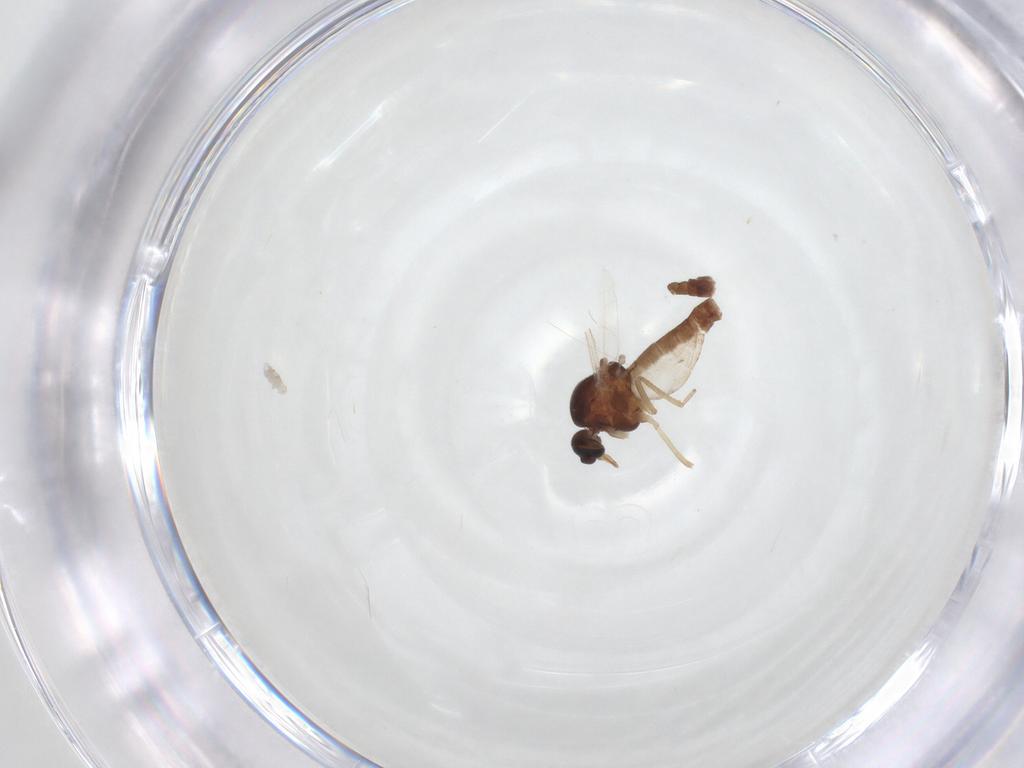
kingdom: Animalia
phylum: Arthropoda
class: Insecta
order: Diptera
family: Ceratopogonidae
